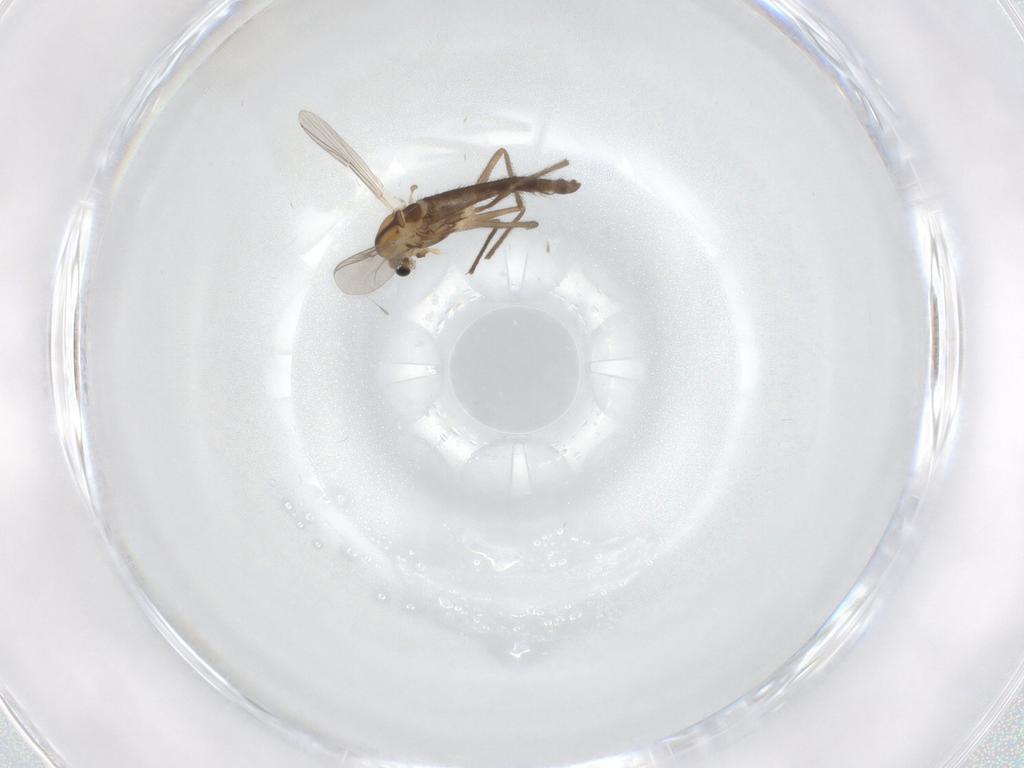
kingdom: Animalia
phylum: Arthropoda
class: Insecta
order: Diptera
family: Chironomidae
